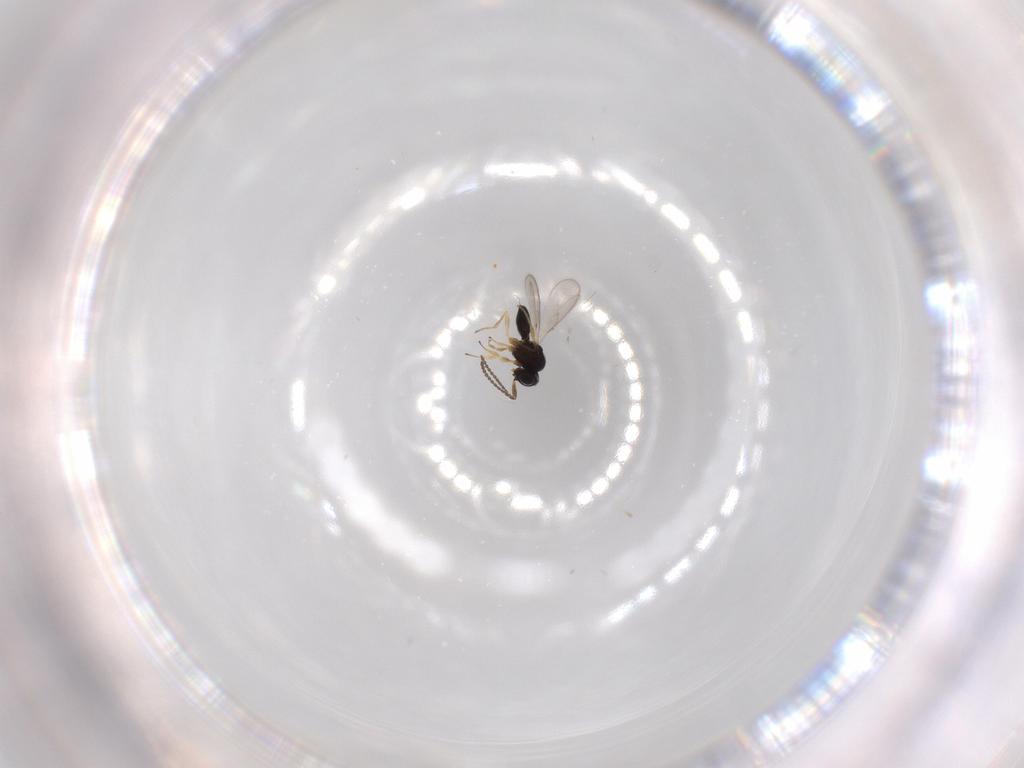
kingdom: Animalia
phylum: Arthropoda
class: Insecta
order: Hymenoptera
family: Scelionidae
